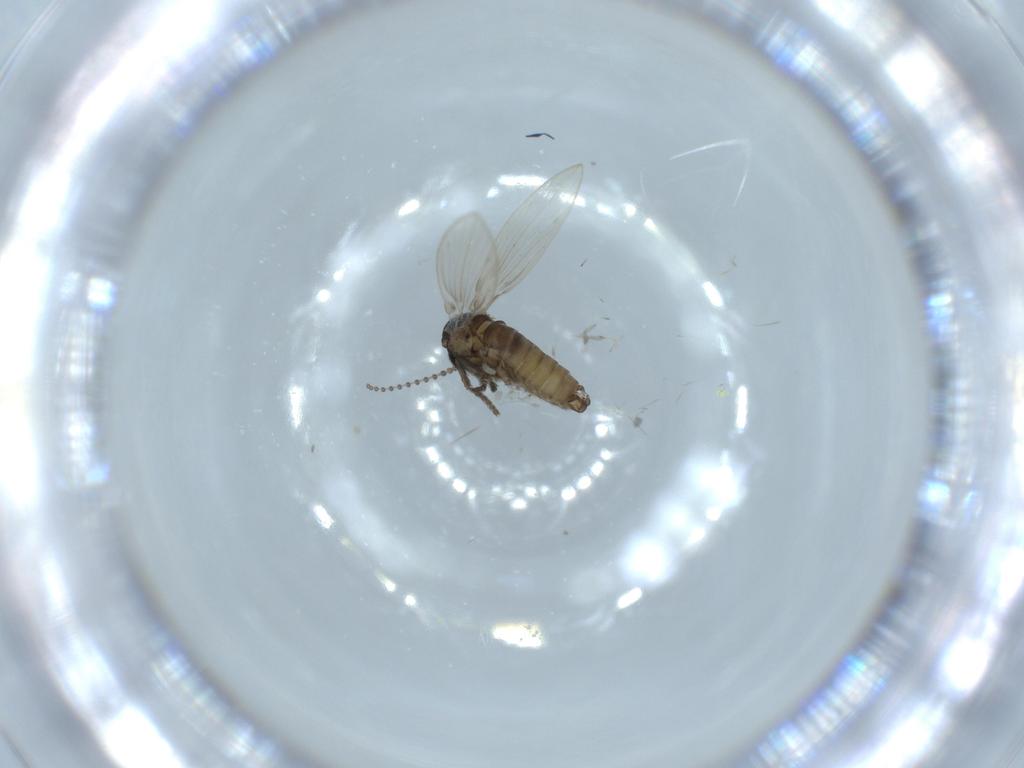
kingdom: Animalia
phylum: Arthropoda
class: Insecta
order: Diptera
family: Psychodidae
